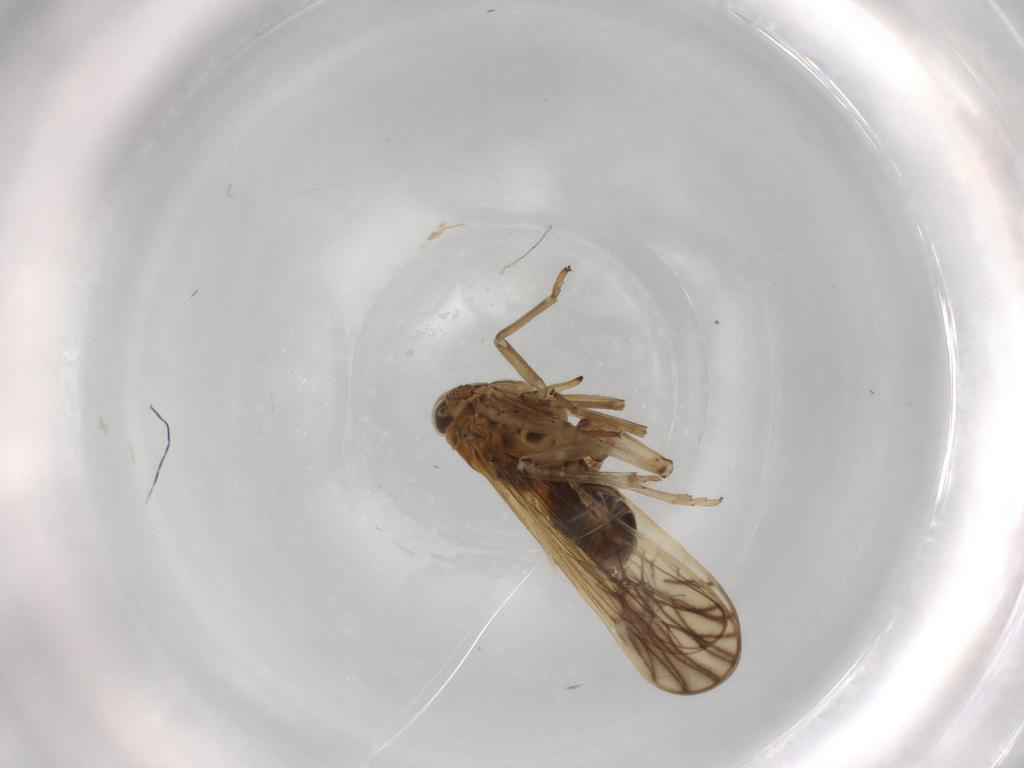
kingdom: Animalia
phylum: Arthropoda
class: Insecta
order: Hemiptera
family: Delphacidae
